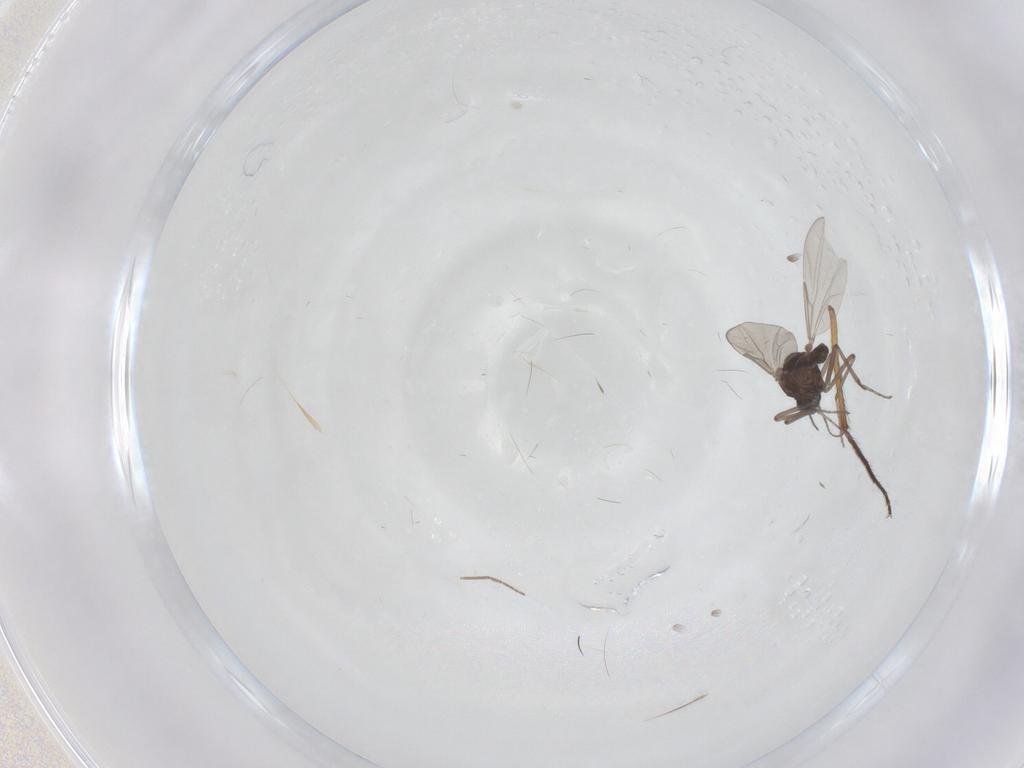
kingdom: Animalia
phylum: Arthropoda
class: Insecta
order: Diptera
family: Chironomidae
